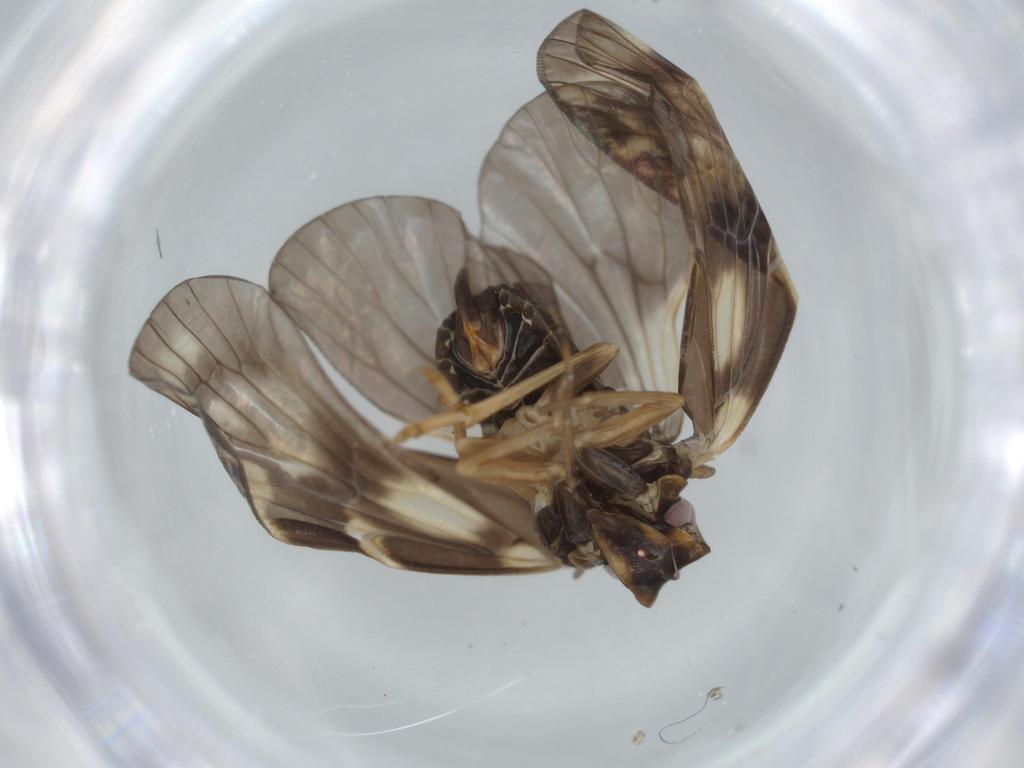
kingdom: Animalia
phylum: Arthropoda
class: Insecta
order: Hemiptera
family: Cixiidae
